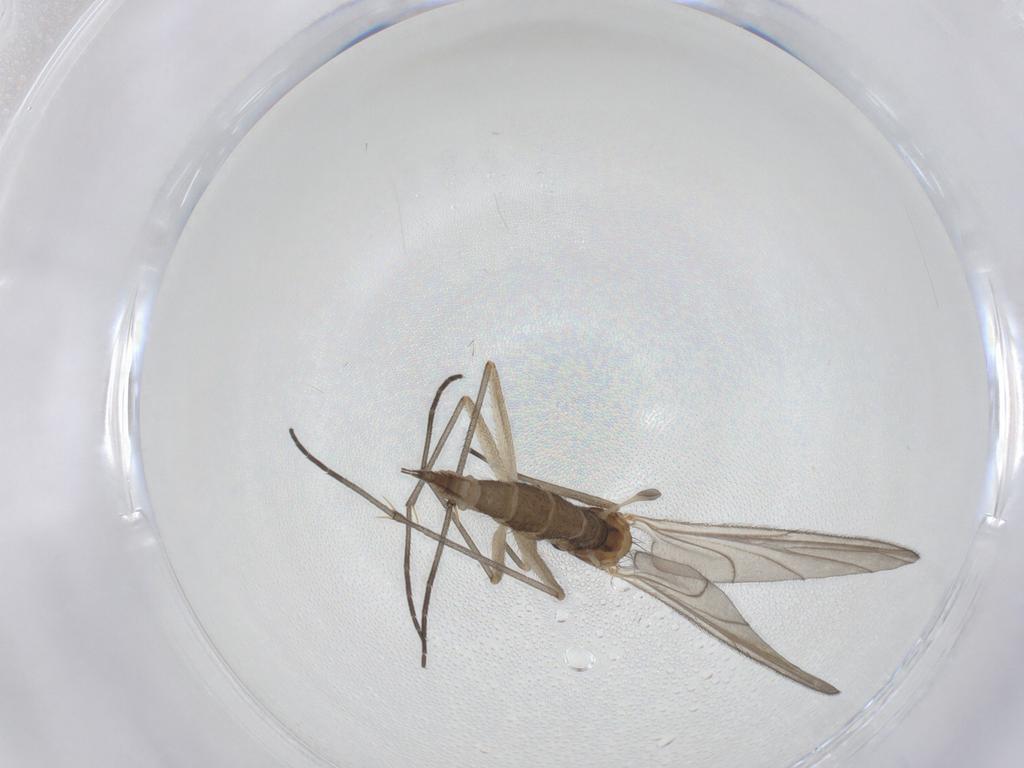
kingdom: Animalia
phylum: Arthropoda
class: Insecta
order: Diptera
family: Sciaridae
